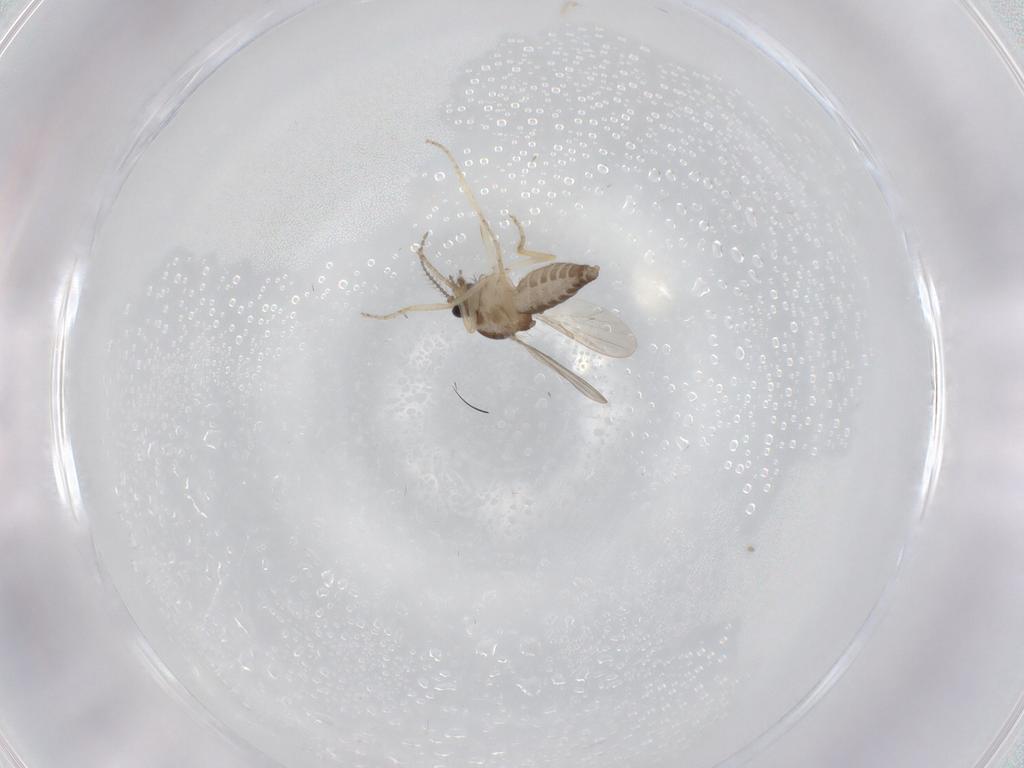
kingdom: Animalia
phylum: Arthropoda
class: Insecta
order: Diptera
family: Ceratopogonidae
